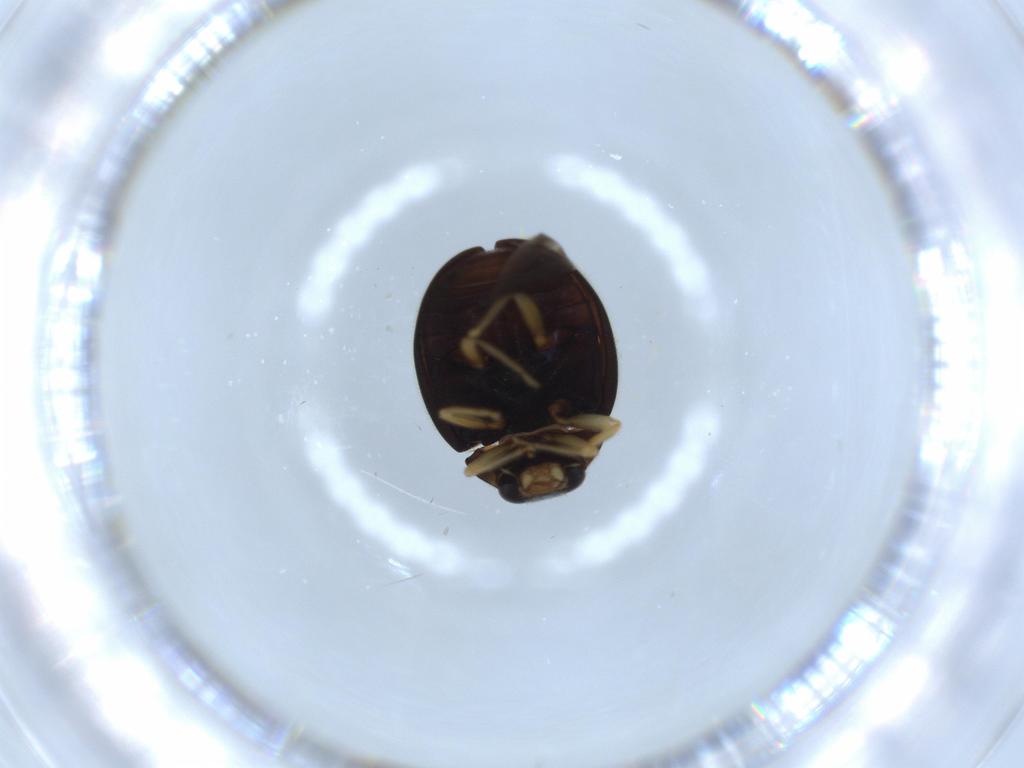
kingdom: Animalia
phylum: Arthropoda
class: Insecta
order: Coleoptera
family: Coccinellidae
